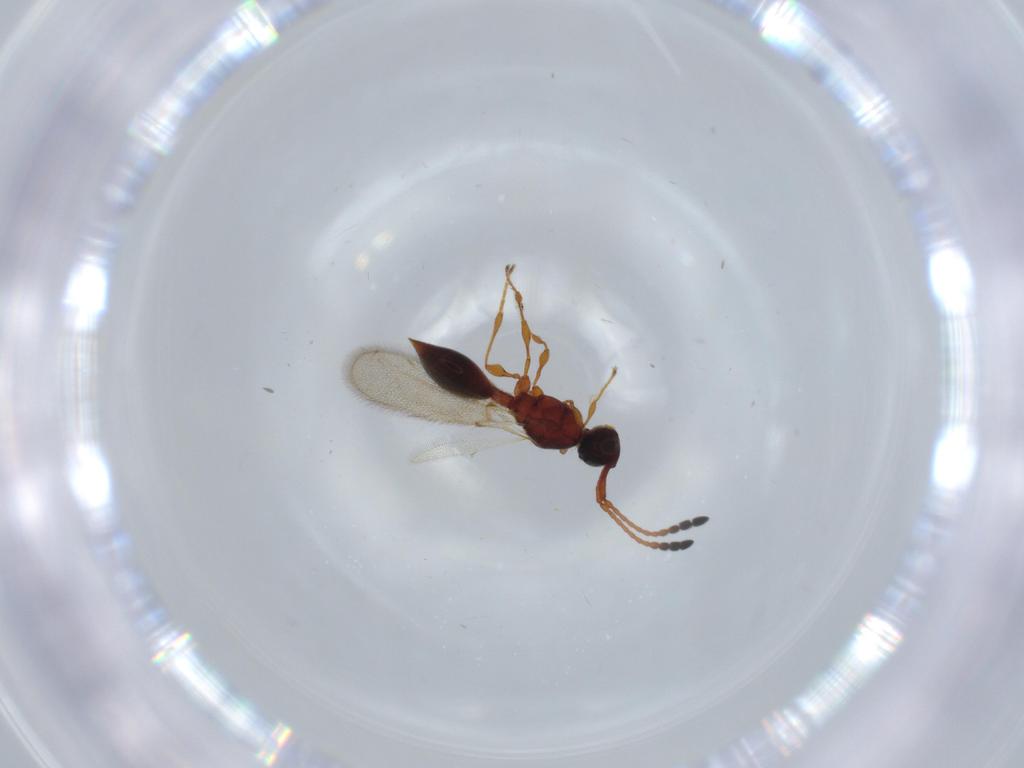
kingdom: Animalia
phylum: Arthropoda
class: Insecta
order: Hymenoptera
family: Diapriidae
